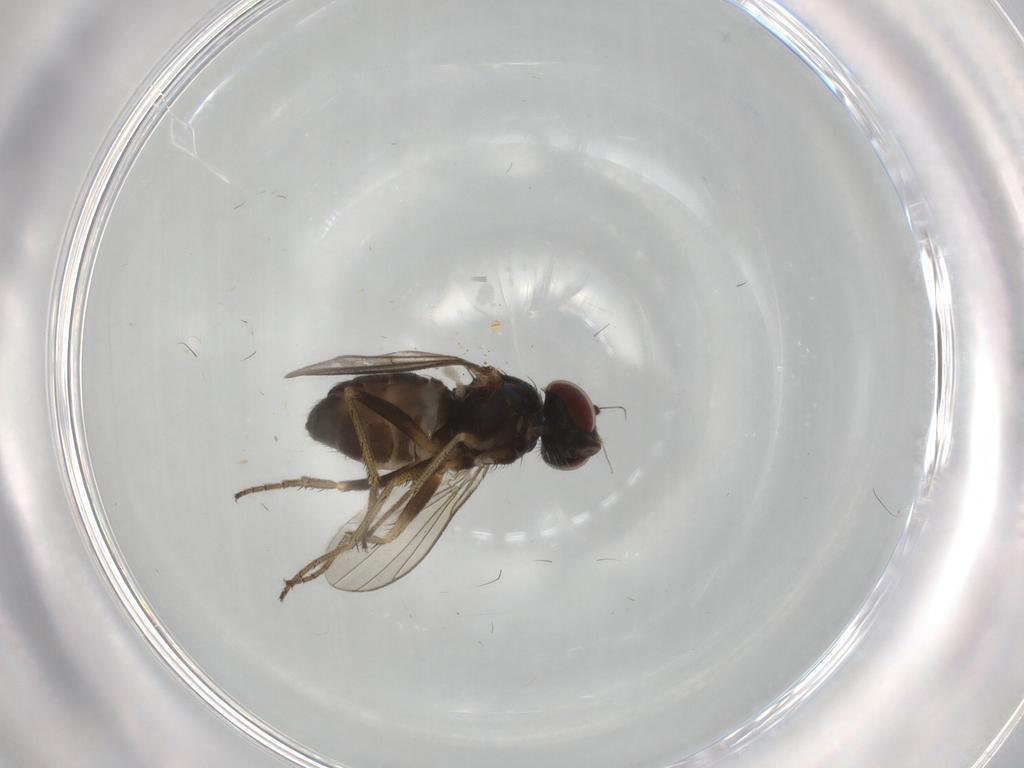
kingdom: Animalia
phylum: Arthropoda
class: Insecta
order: Diptera
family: Dolichopodidae
